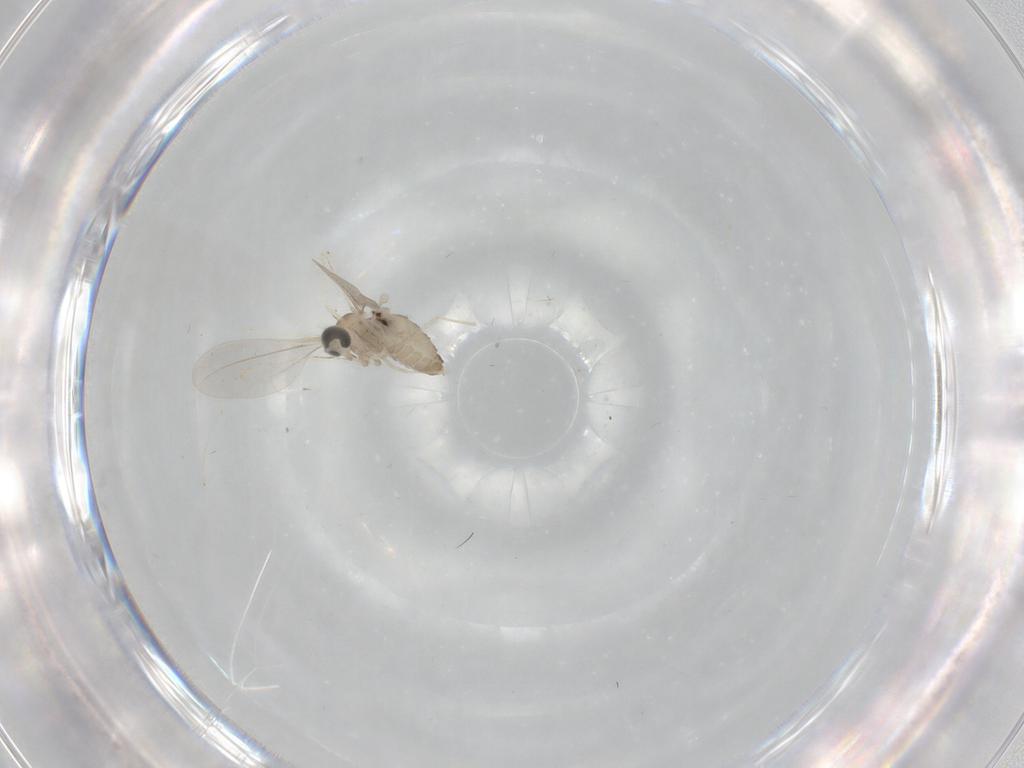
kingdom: Animalia
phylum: Arthropoda
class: Insecta
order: Diptera
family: Cecidomyiidae
